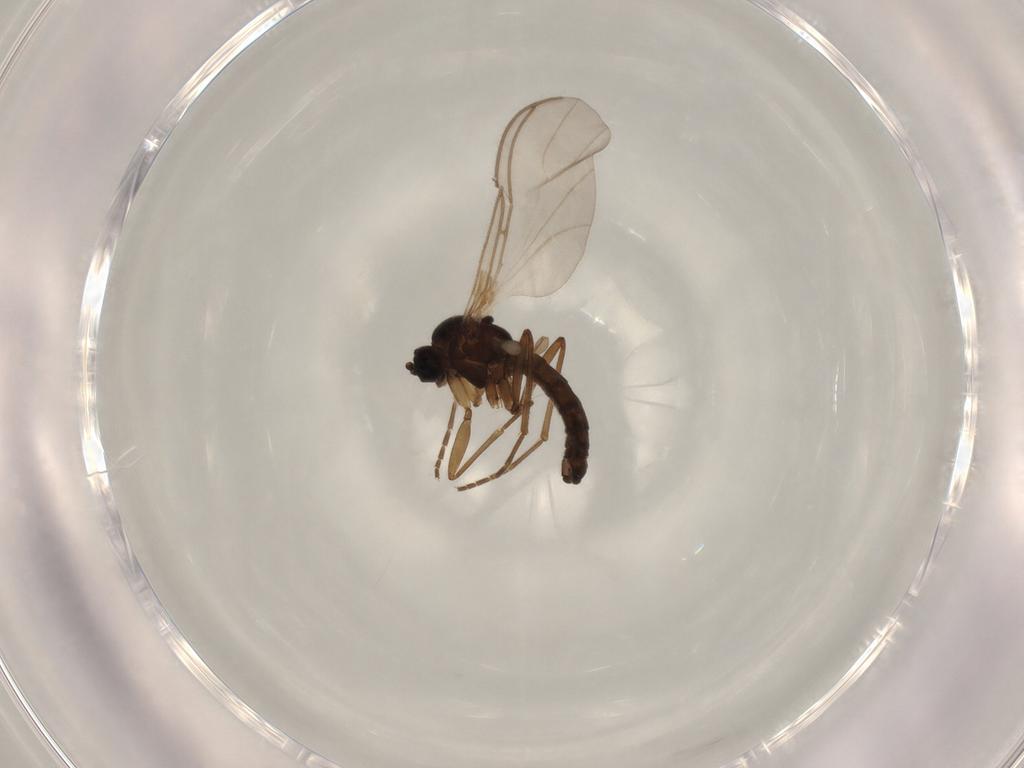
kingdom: Animalia
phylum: Arthropoda
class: Insecta
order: Diptera
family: Sciaridae
